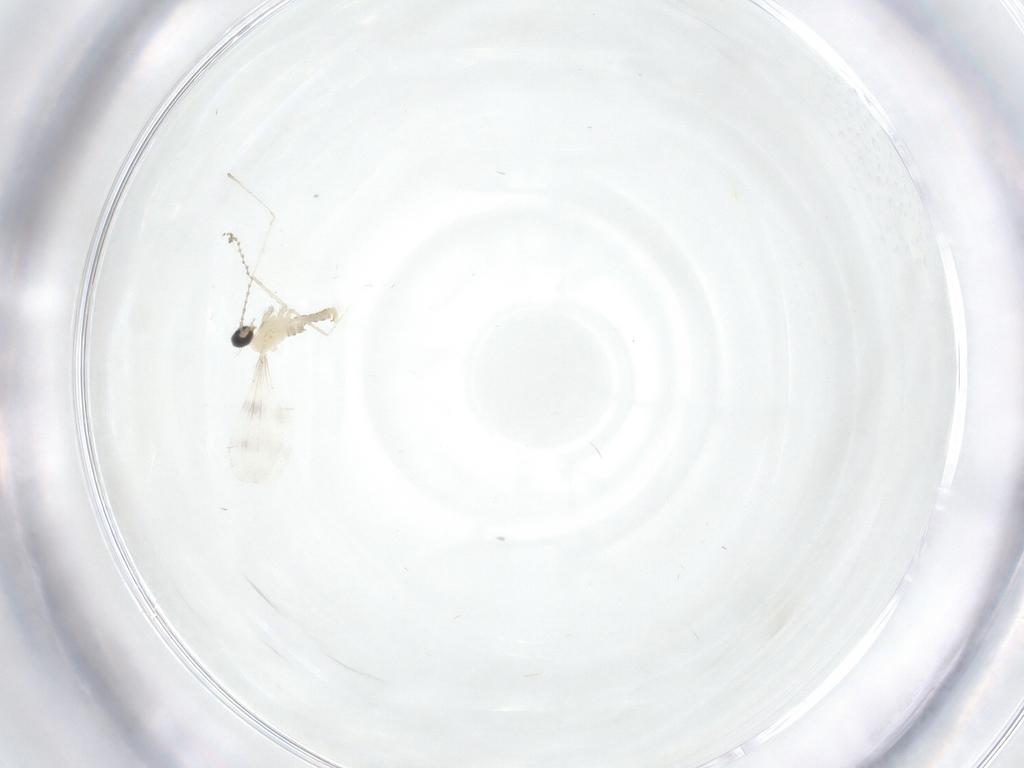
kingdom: Animalia
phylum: Arthropoda
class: Insecta
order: Diptera
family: Cecidomyiidae
